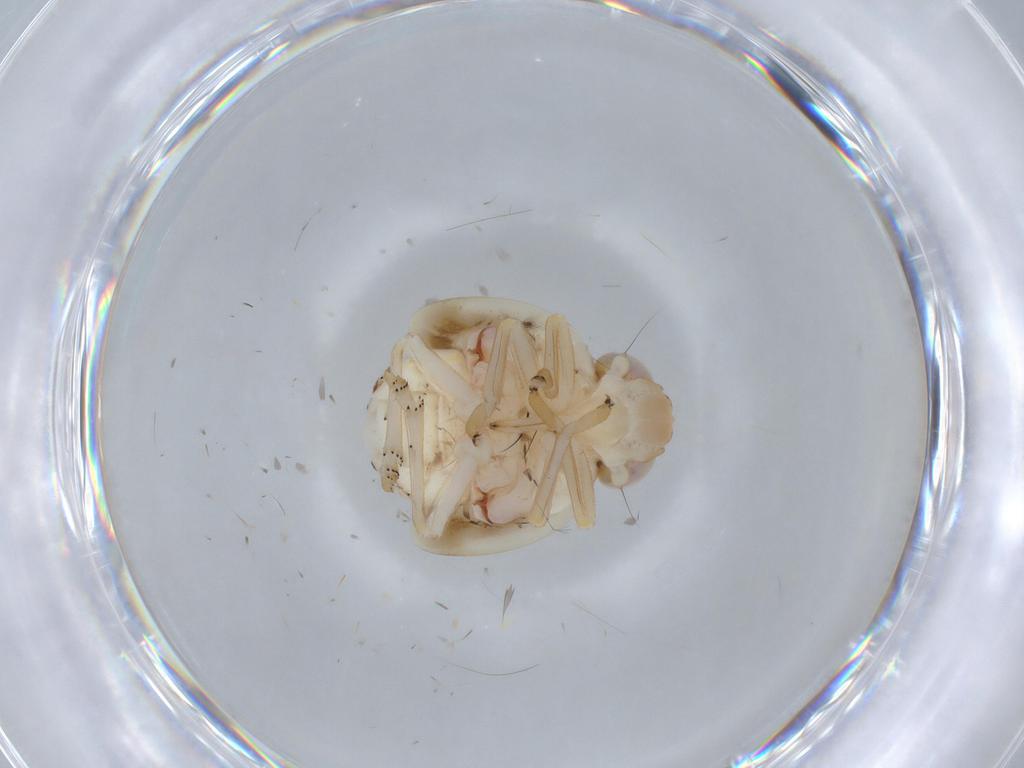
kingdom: Animalia
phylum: Arthropoda
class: Insecta
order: Hemiptera
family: Nogodinidae
